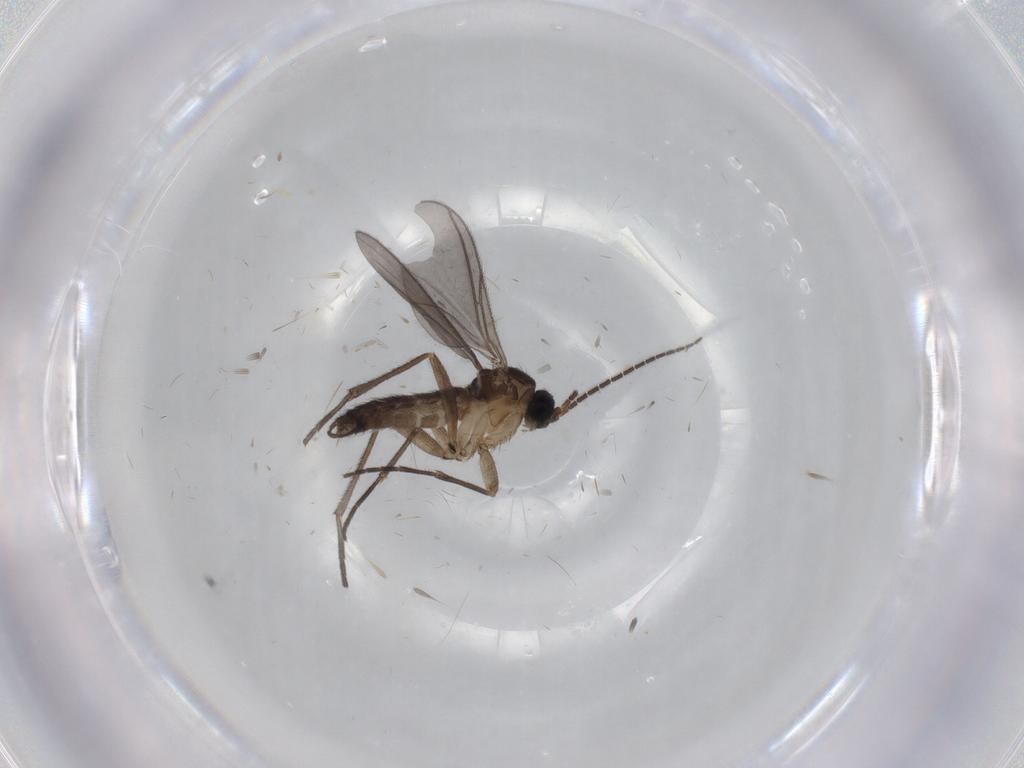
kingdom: Animalia
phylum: Arthropoda
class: Insecta
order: Diptera
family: Sciaridae
